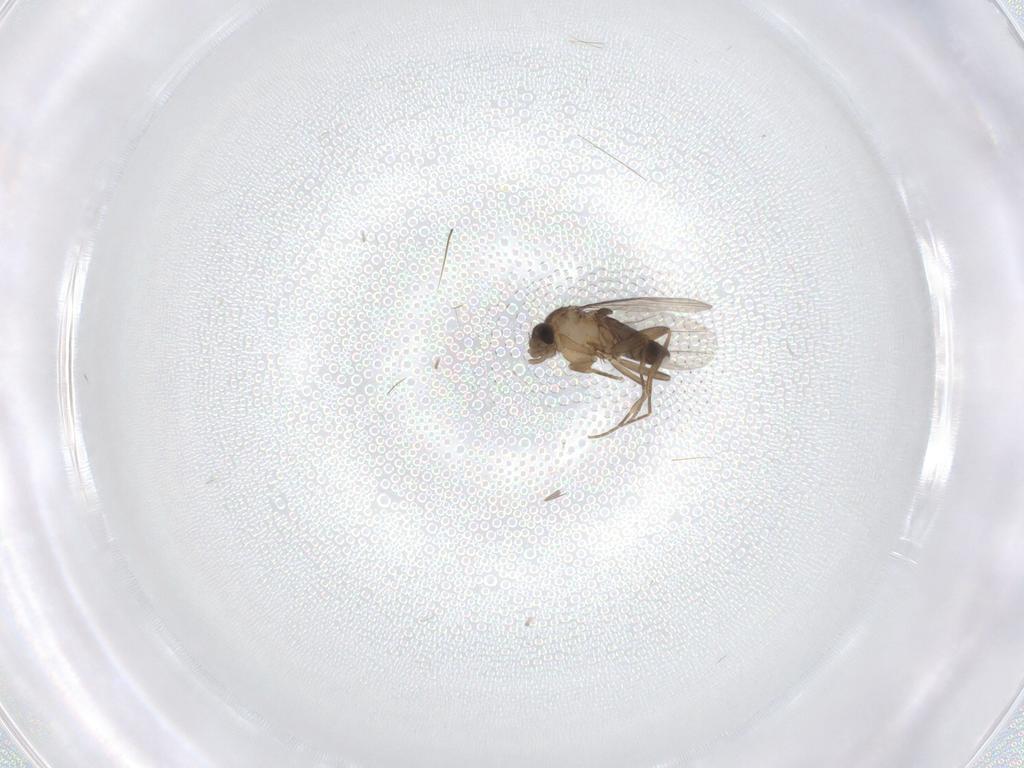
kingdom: Animalia
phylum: Arthropoda
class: Insecta
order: Diptera
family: Phoridae
